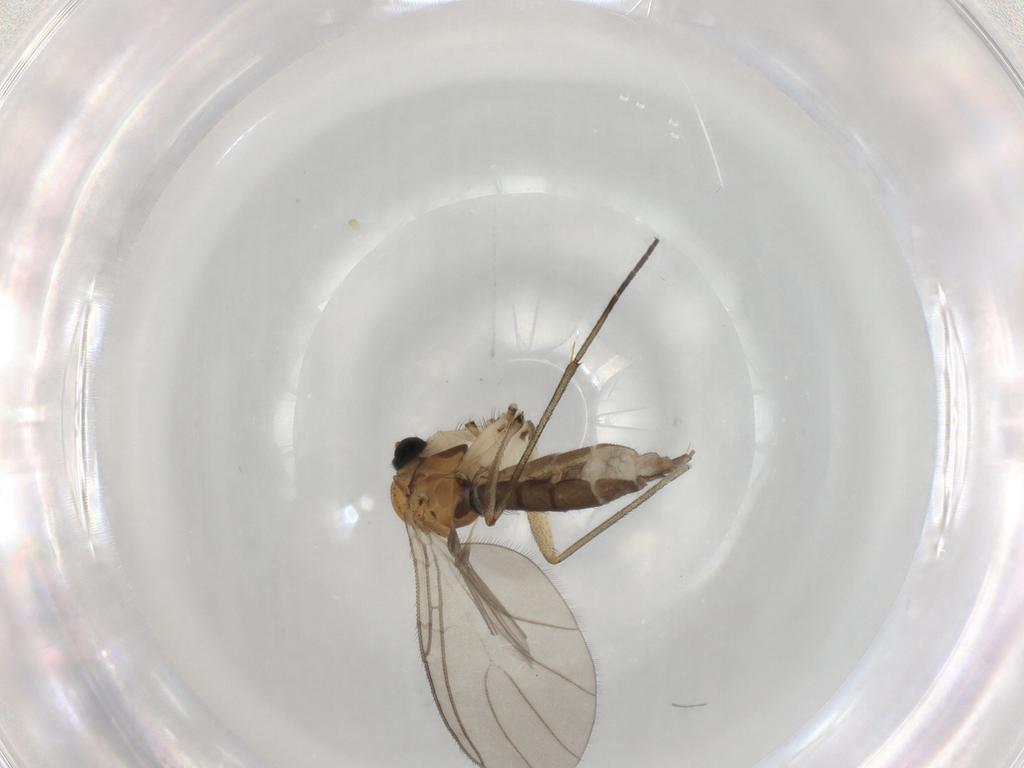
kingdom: Animalia
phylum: Arthropoda
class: Insecta
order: Diptera
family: Sciaridae
